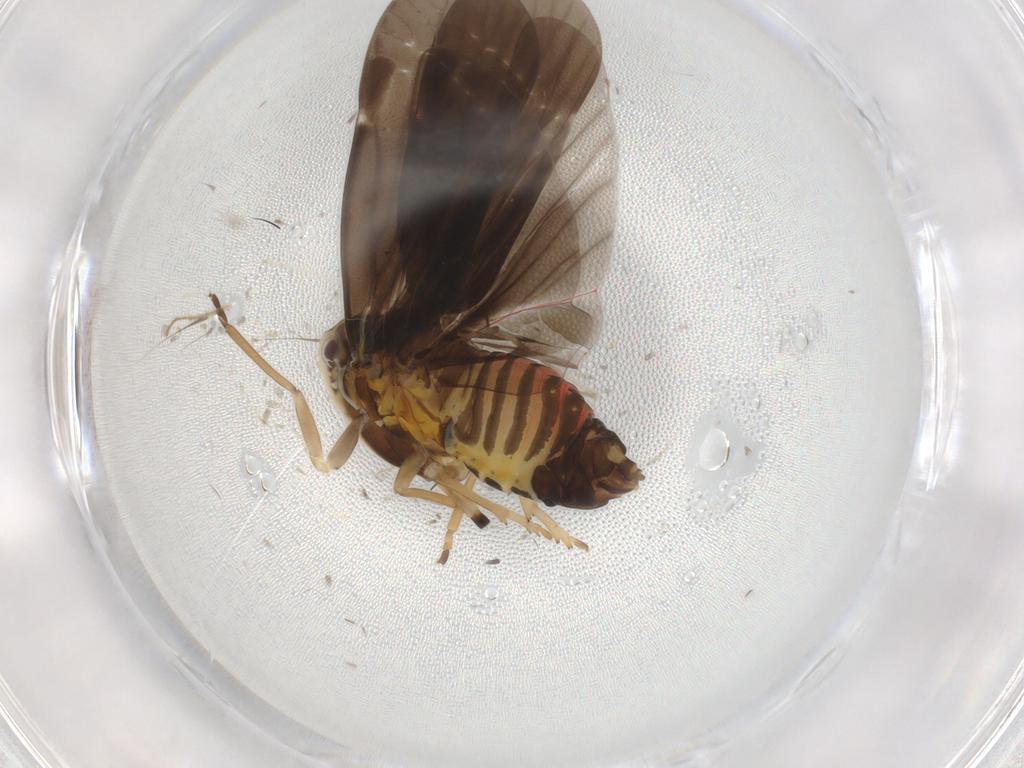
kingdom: Animalia
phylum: Arthropoda
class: Insecta
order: Hemiptera
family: Derbidae
